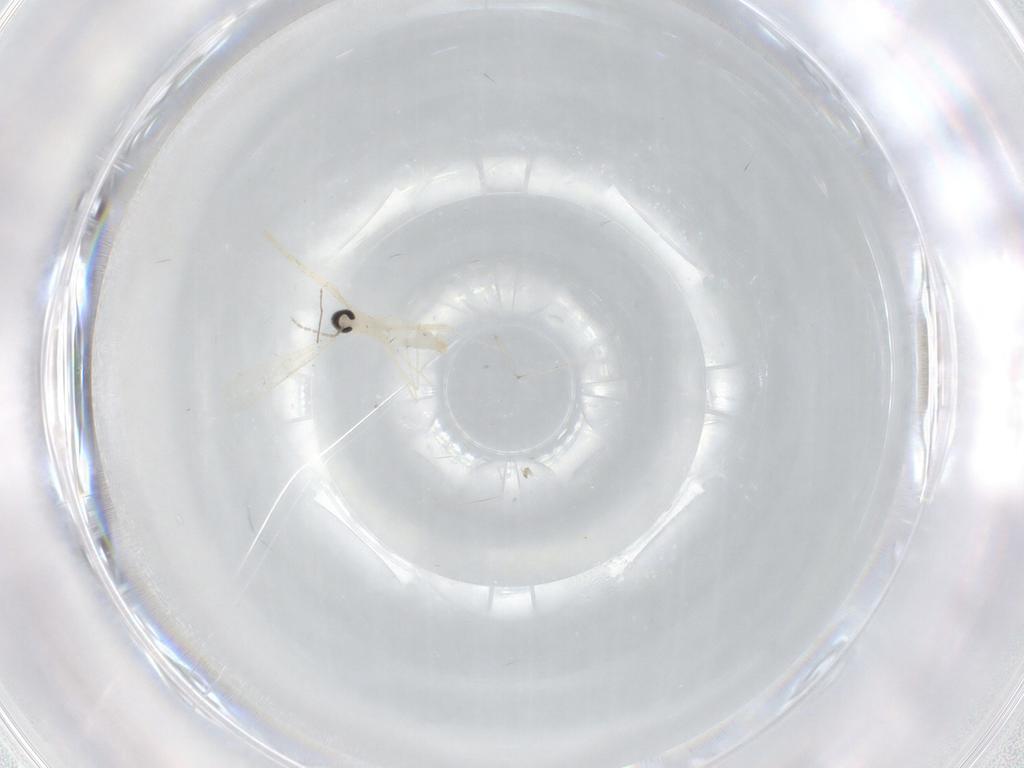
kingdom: Animalia
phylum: Arthropoda
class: Insecta
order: Diptera
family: Cecidomyiidae
